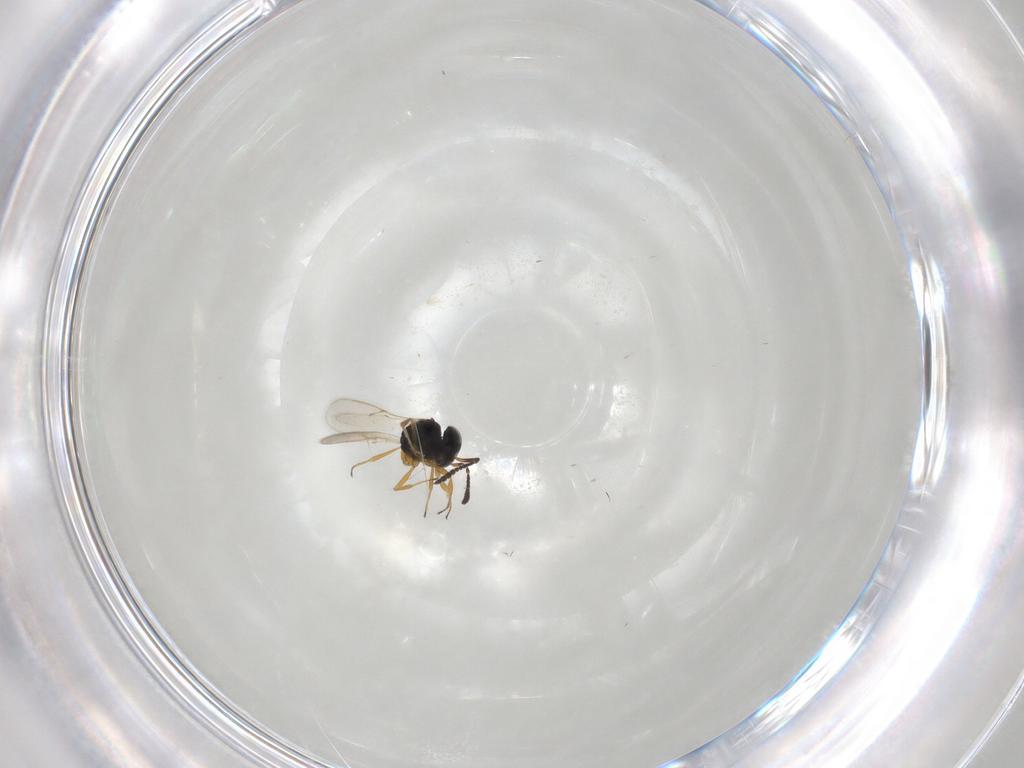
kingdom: Animalia
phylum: Arthropoda
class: Insecta
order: Hymenoptera
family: Scelionidae
